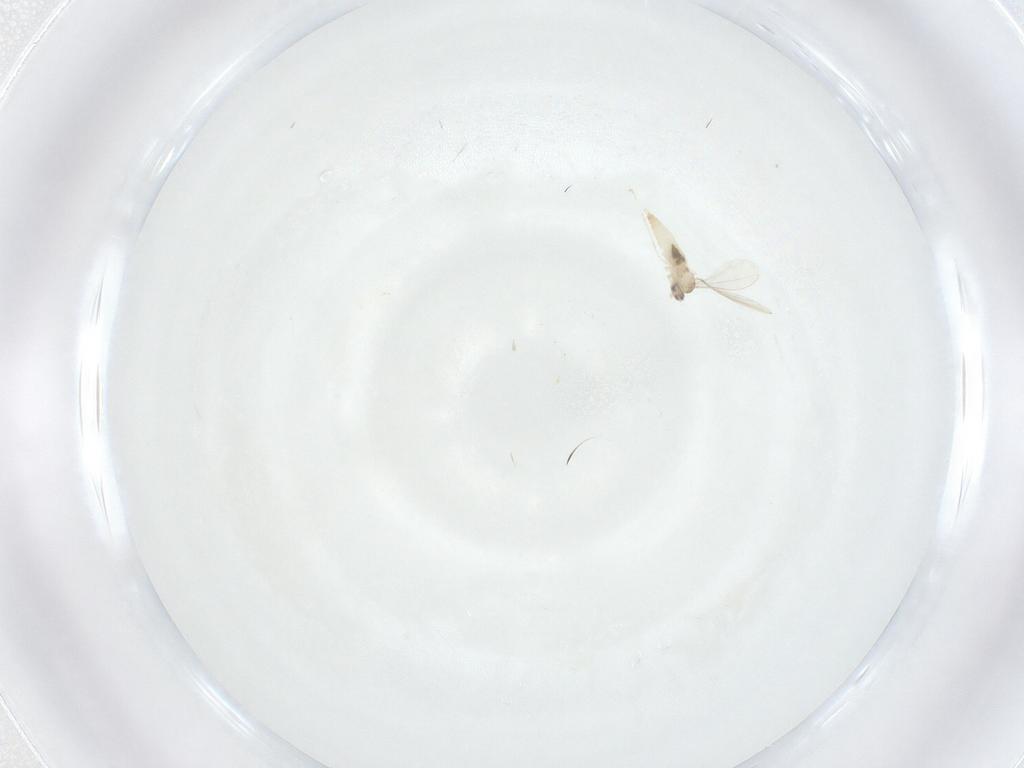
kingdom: Animalia
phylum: Arthropoda
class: Insecta
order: Diptera
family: Cecidomyiidae
